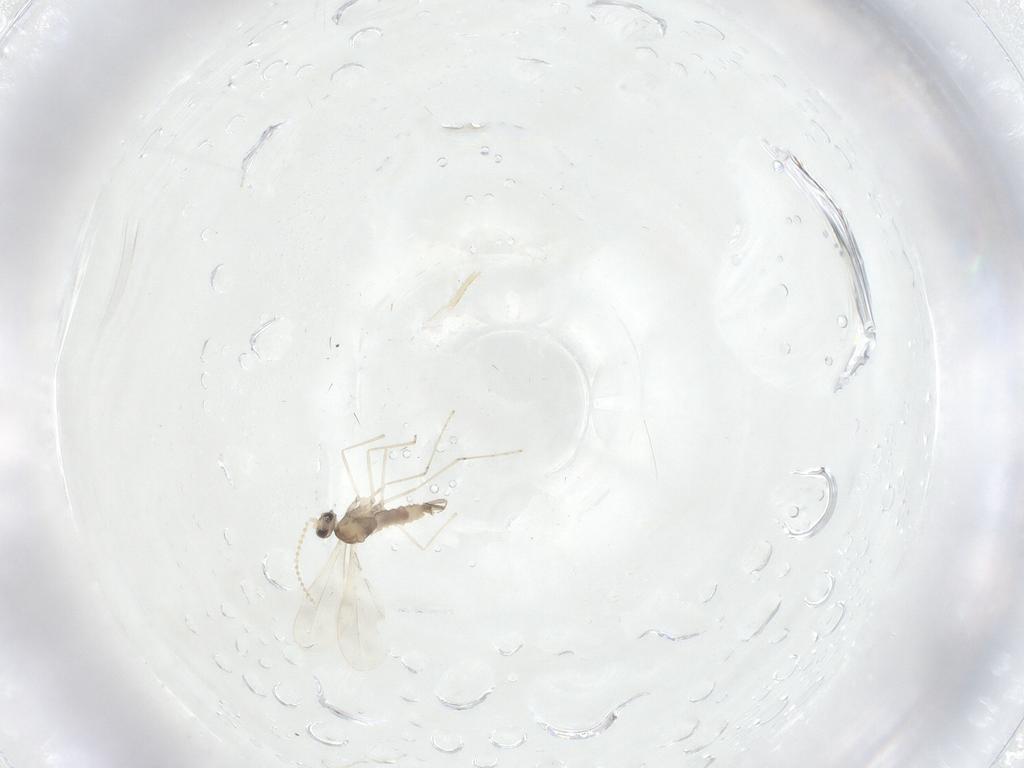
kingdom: Animalia
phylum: Arthropoda
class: Insecta
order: Diptera
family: Cecidomyiidae
